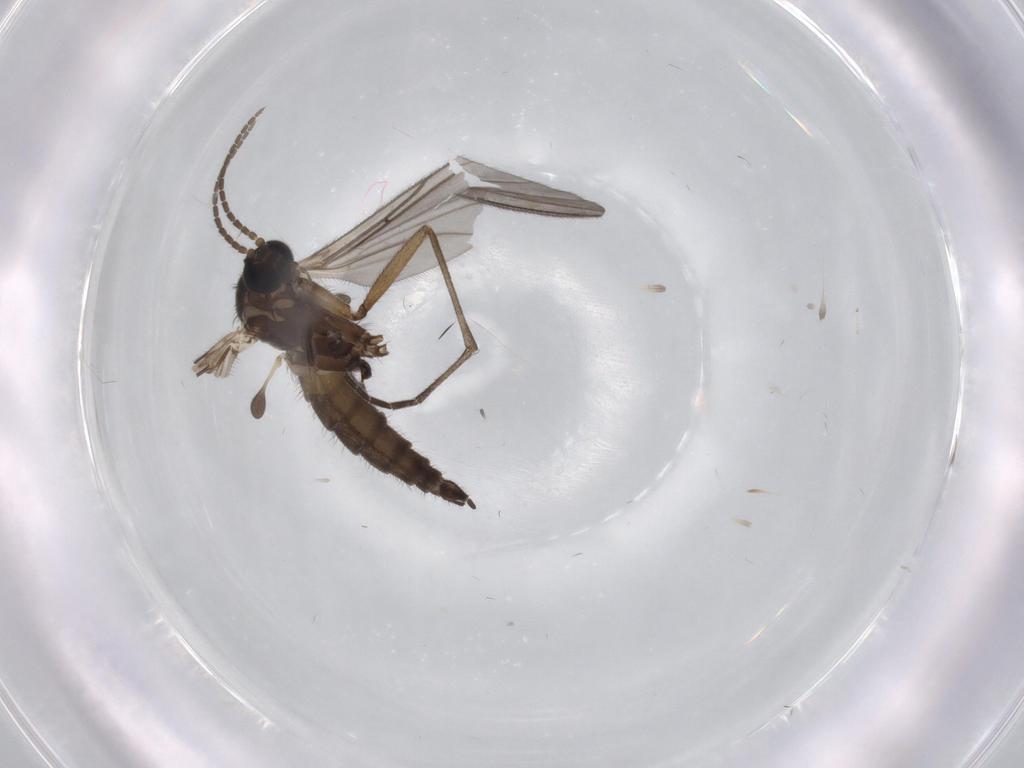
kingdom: Animalia
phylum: Arthropoda
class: Insecta
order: Diptera
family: Sciaridae
